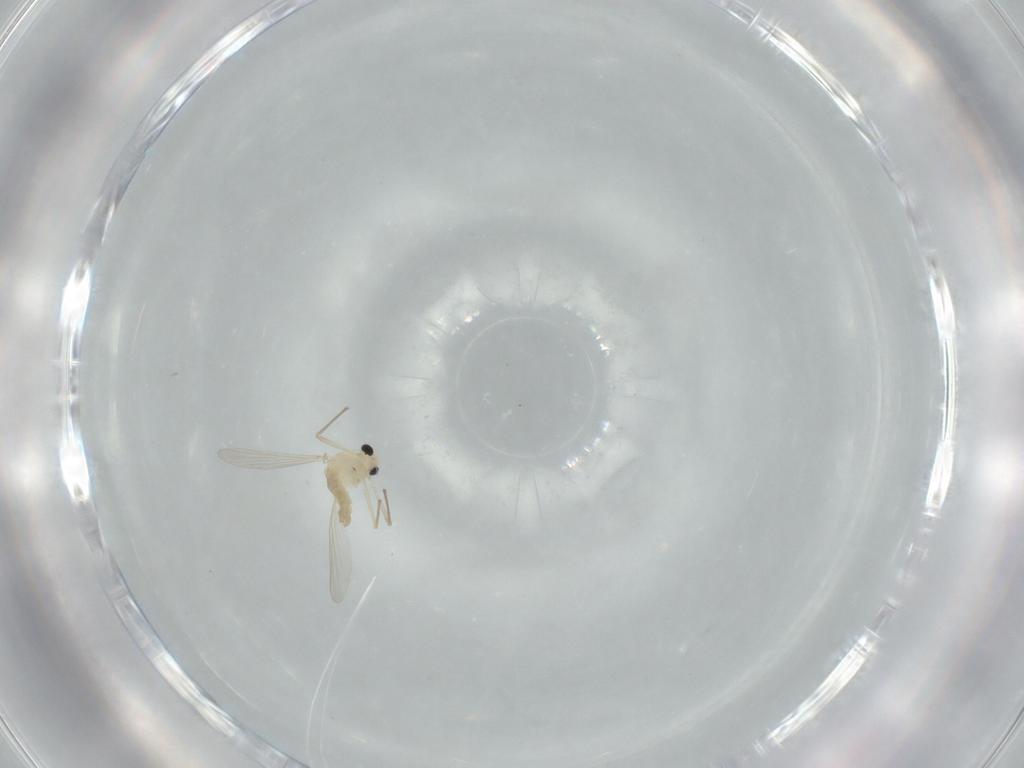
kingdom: Animalia
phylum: Arthropoda
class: Insecta
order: Diptera
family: Chironomidae
